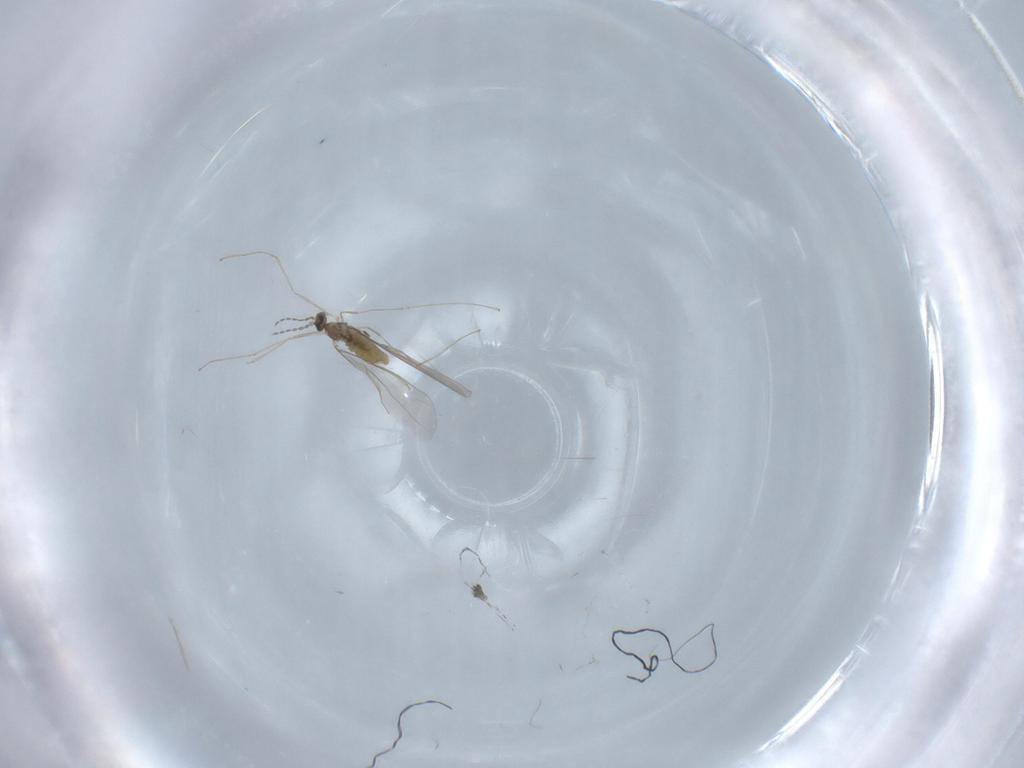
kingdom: Animalia
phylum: Arthropoda
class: Insecta
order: Diptera
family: Cecidomyiidae
